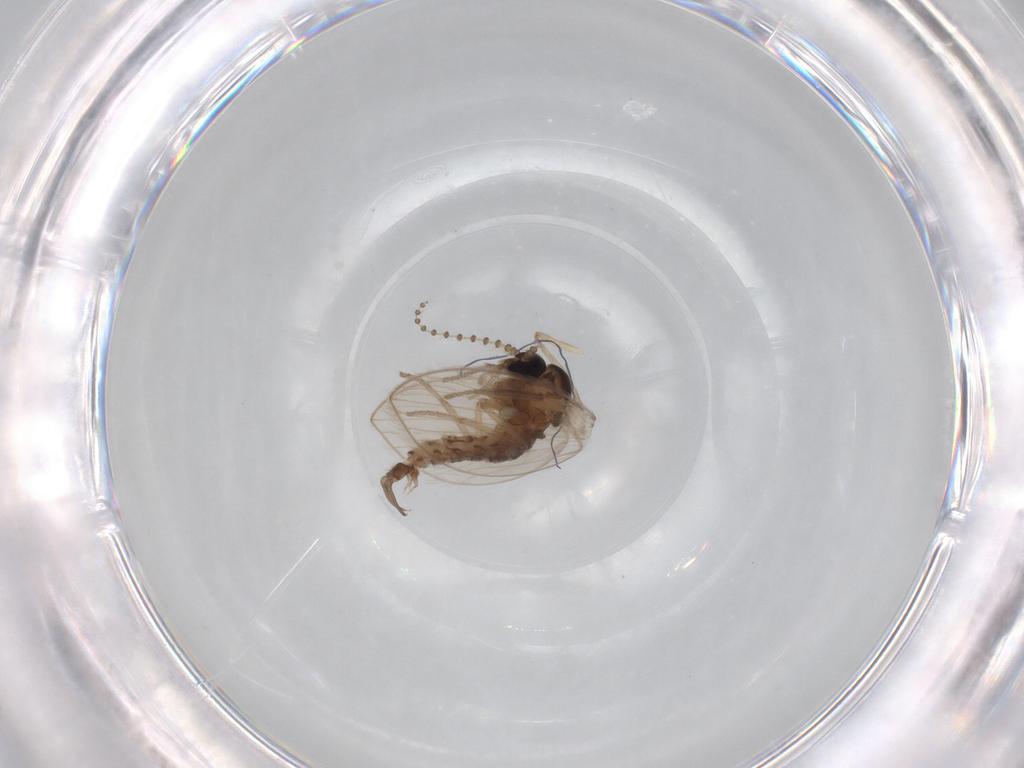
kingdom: Animalia
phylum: Arthropoda
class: Insecta
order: Diptera
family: Psychodidae
